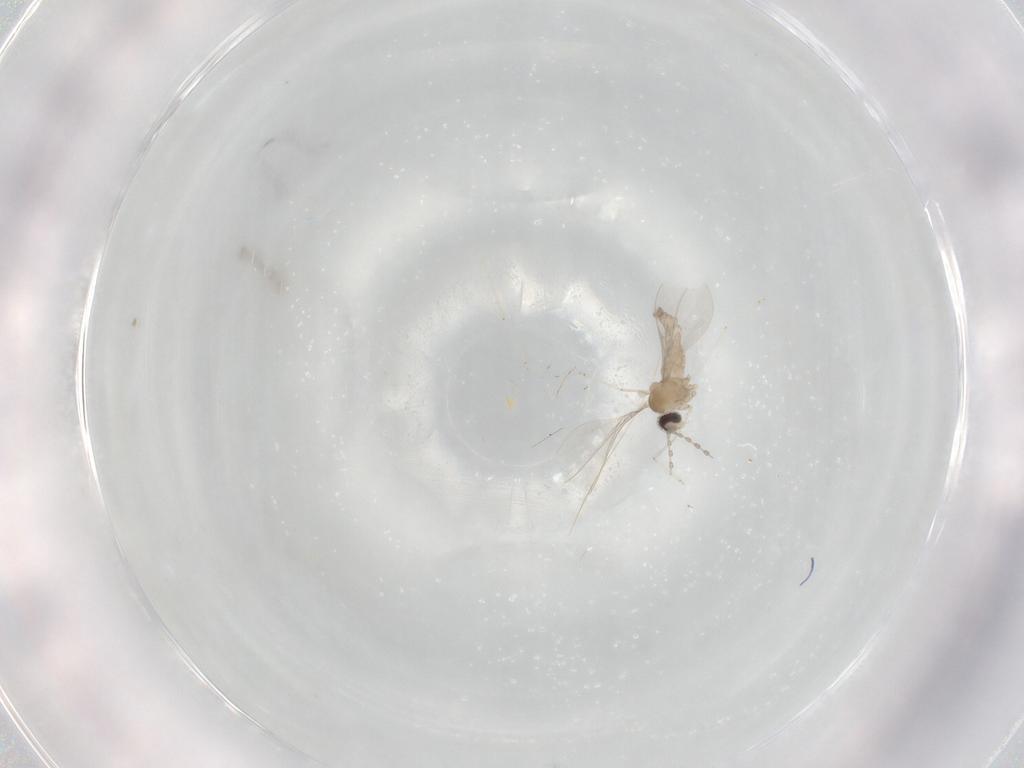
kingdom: Animalia
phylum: Arthropoda
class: Insecta
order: Diptera
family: Cecidomyiidae
